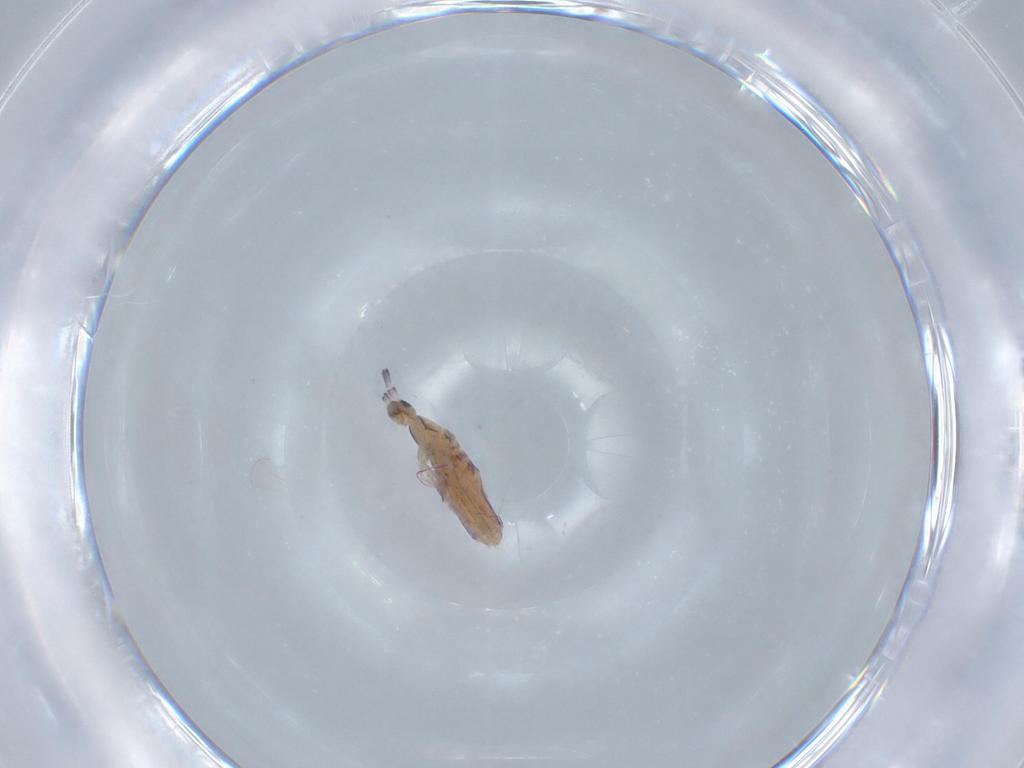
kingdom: Animalia
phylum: Arthropoda
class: Collembola
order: Poduromorpha
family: Hypogastruridae
